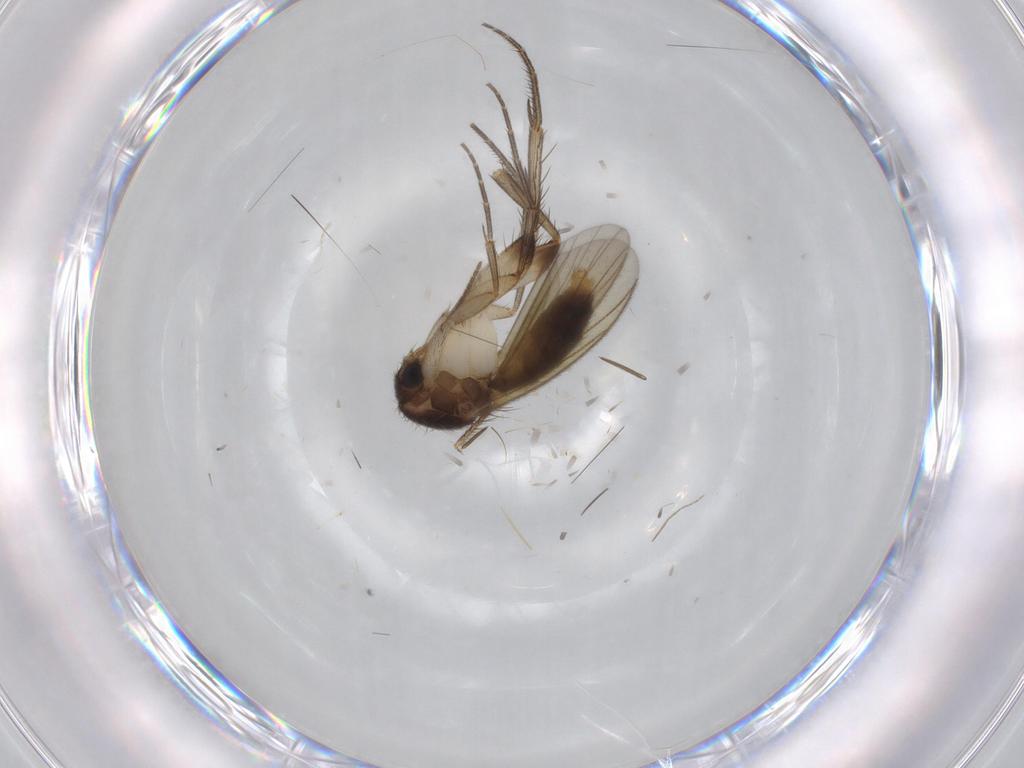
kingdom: Animalia
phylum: Arthropoda
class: Insecta
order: Diptera
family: Mycetophilidae
